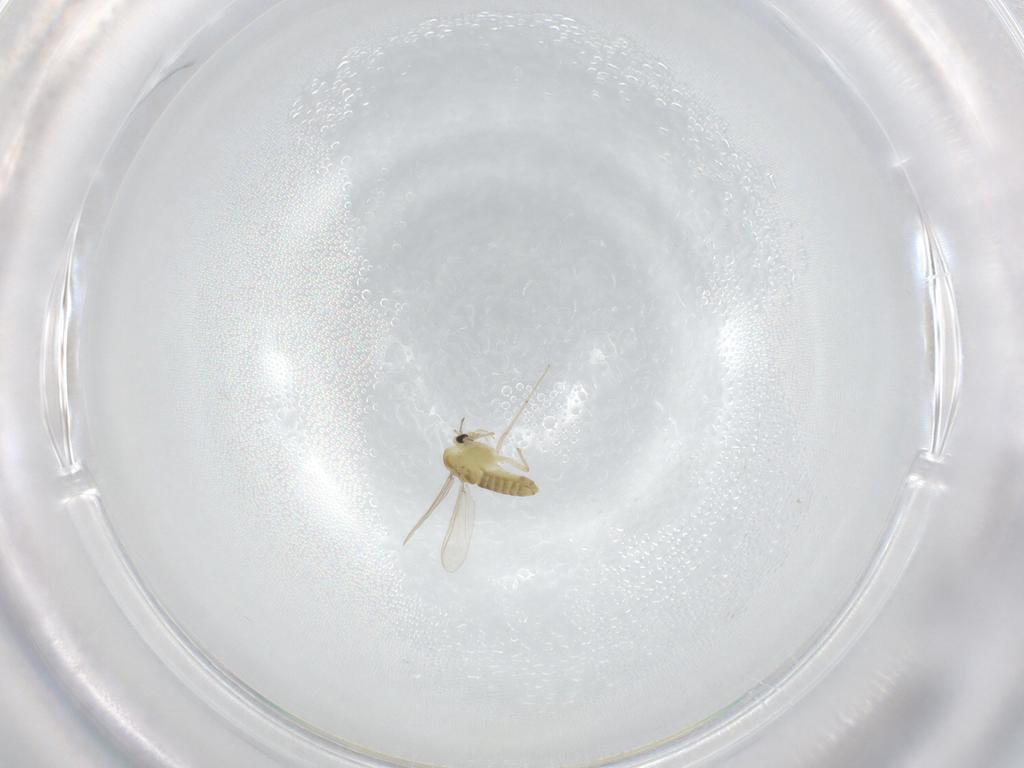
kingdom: Animalia
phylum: Arthropoda
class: Insecta
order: Diptera
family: Chironomidae
